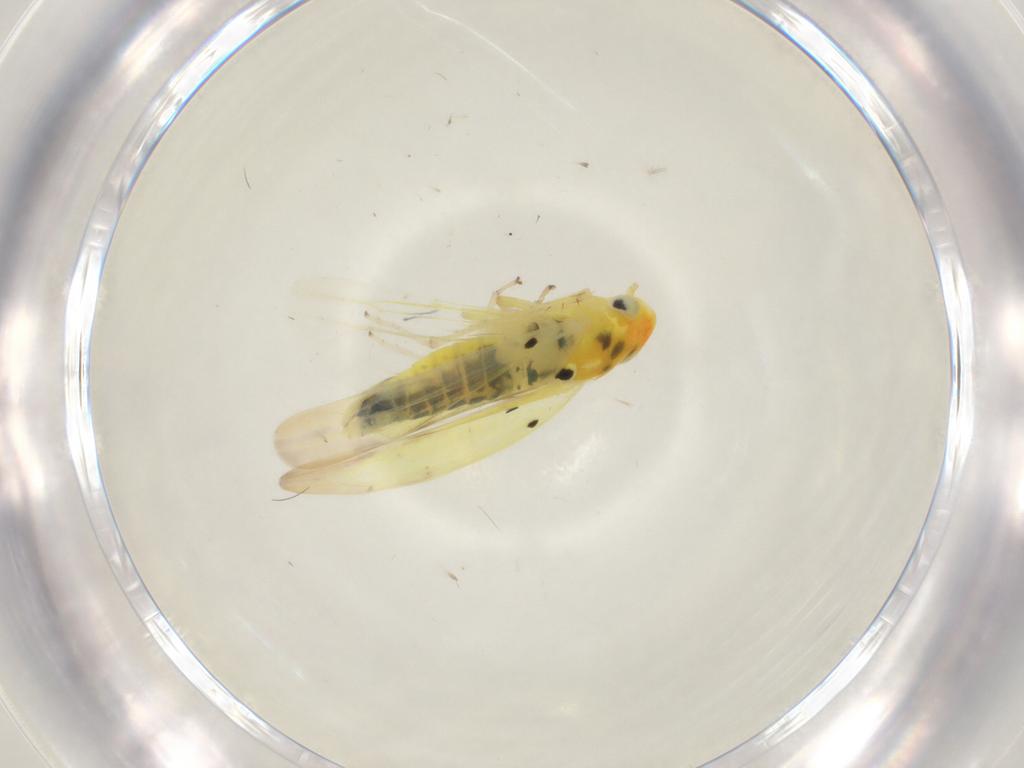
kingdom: Animalia
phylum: Arthropoda
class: Insecta
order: Hemiptera
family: Cicadellidae
